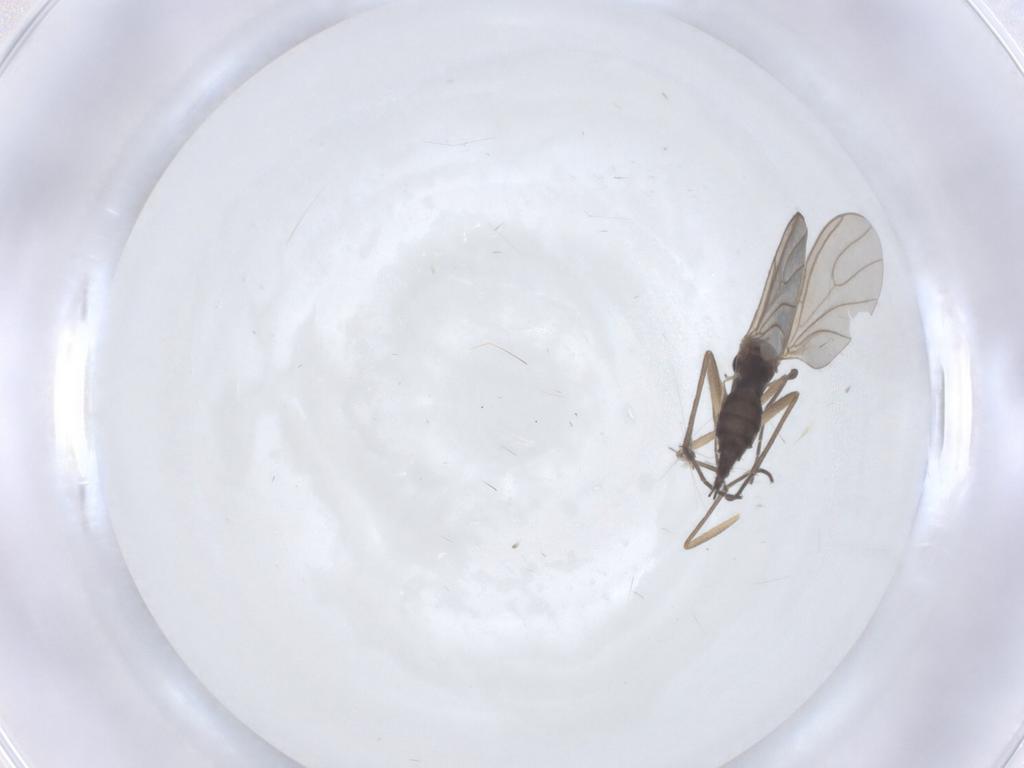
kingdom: Animalia
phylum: Arthropoda
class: Insecta
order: Diptera
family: Sciaridae
